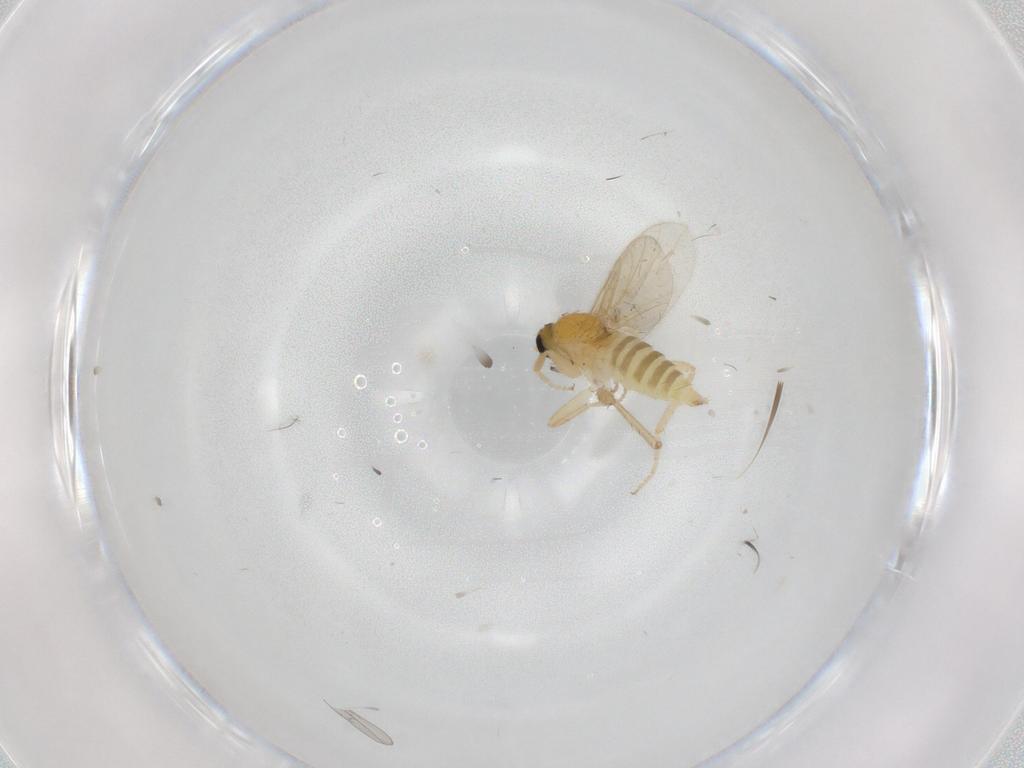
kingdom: Animalia
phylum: Arthropoda
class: Insecta
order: Diptera
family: Hybotidae
